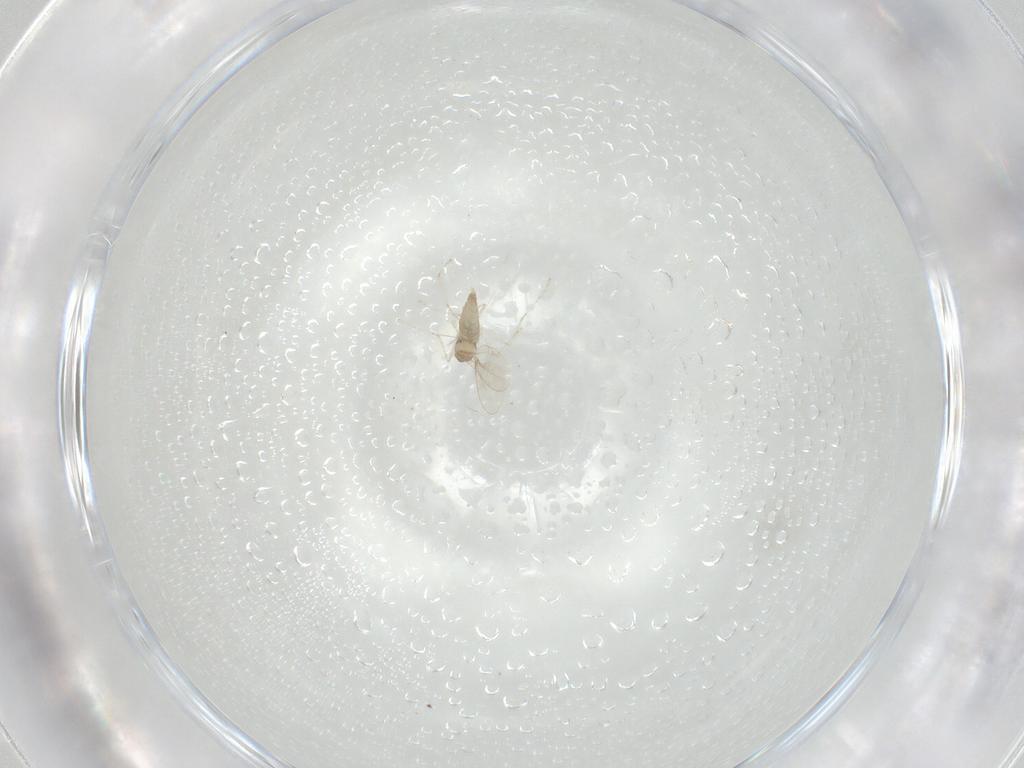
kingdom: Animalia
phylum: Arthropoda
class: Insecta
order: Diptera
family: Cecidomyiidae
